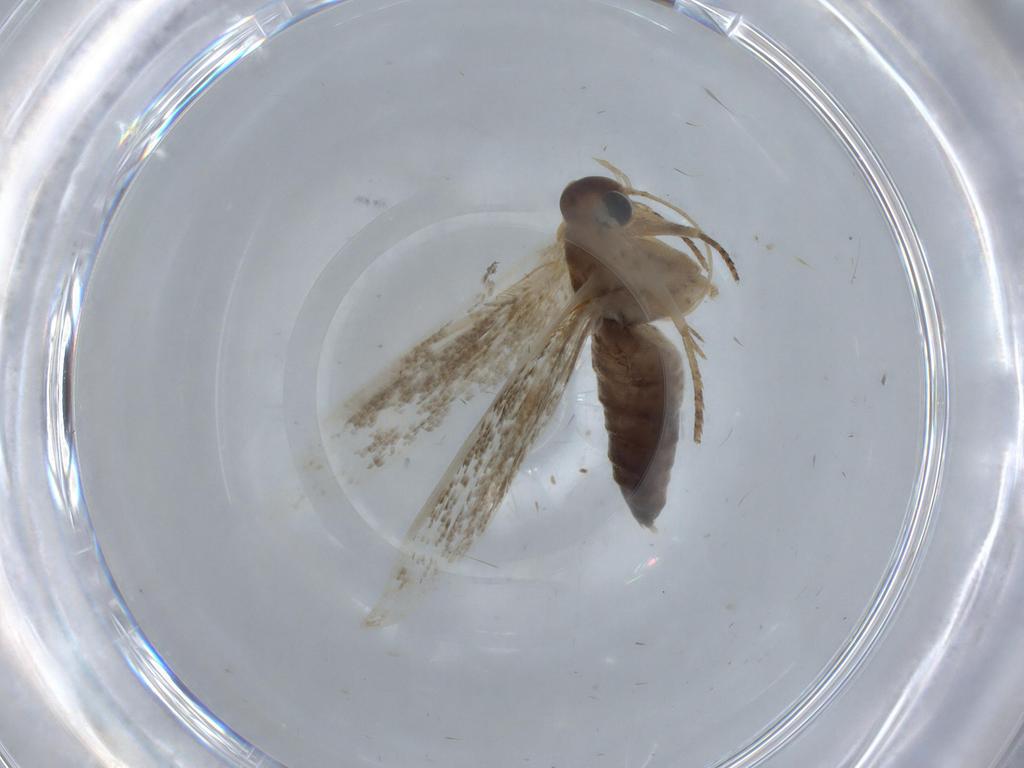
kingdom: Animalia
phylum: Arthropoda
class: Insecta
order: Lepidoptera
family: Blastobasidae
